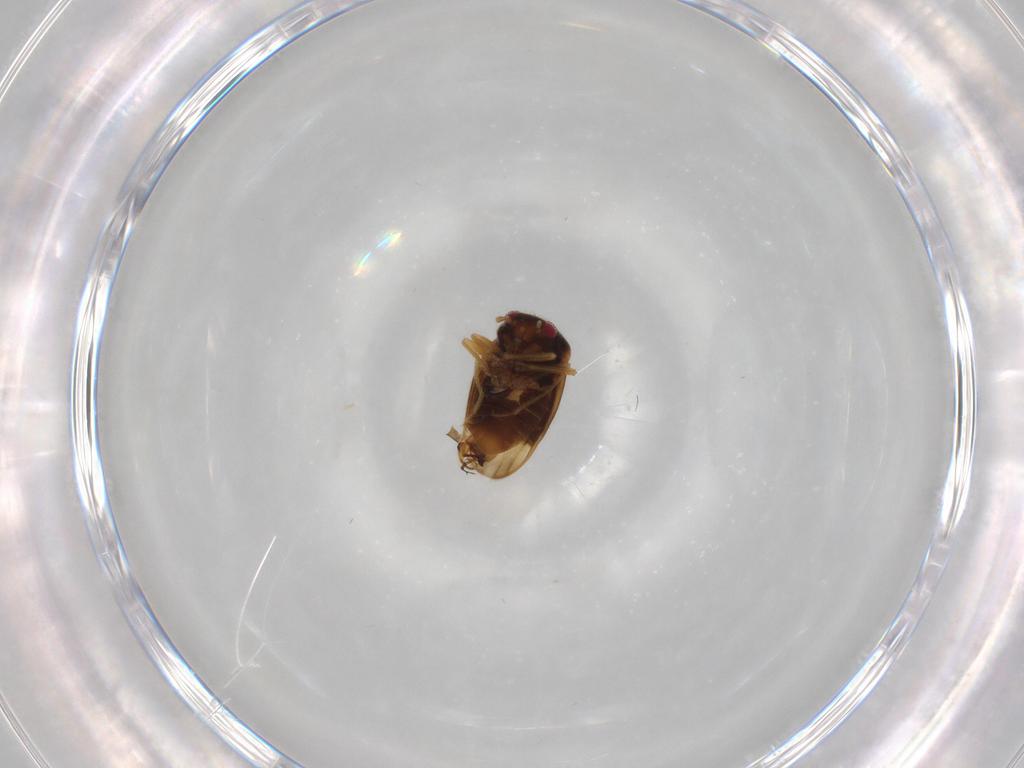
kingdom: Animalia
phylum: Arthropoda
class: Insecta
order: Hemiptera
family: Schizopteridae
